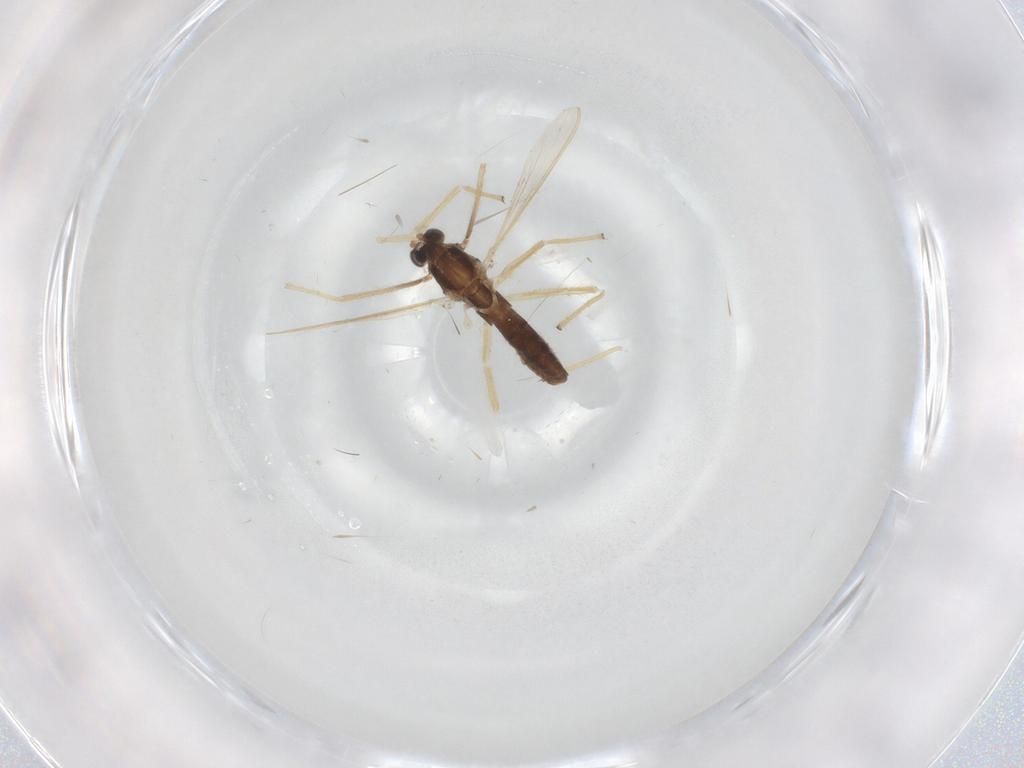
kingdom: Animalia
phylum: Arthropoda
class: Insecta
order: Diptera
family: Chironomidae
